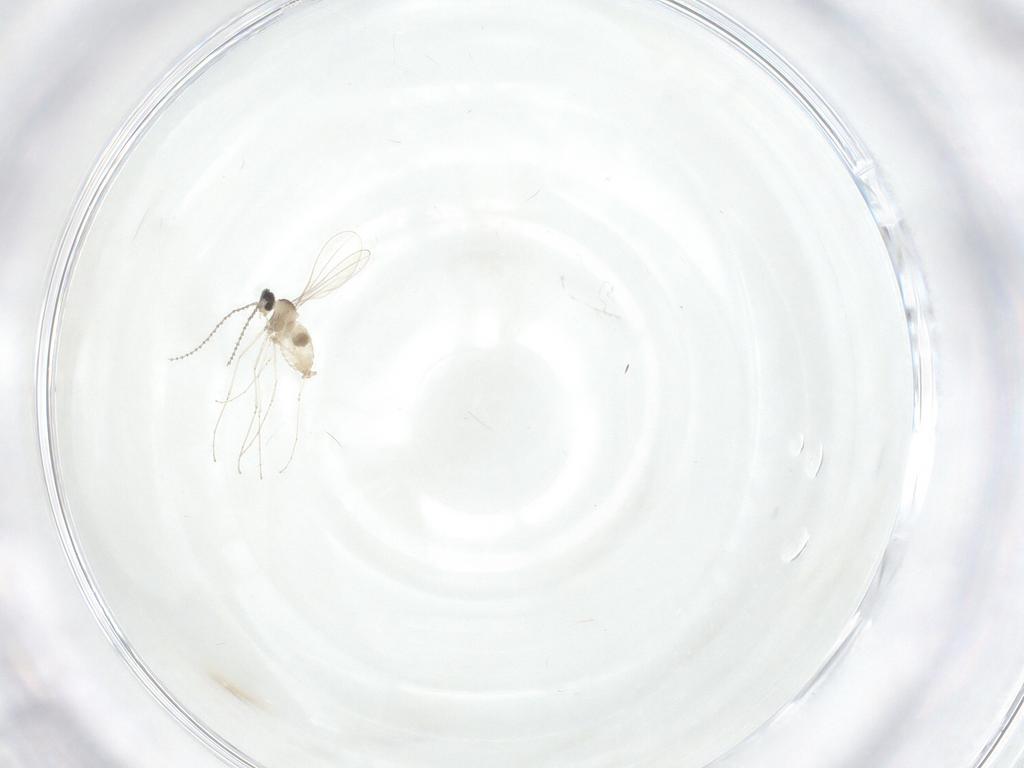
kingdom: Animalia
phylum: Arthropoda
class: Insecta
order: Diptera
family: Cecidomyiidae
